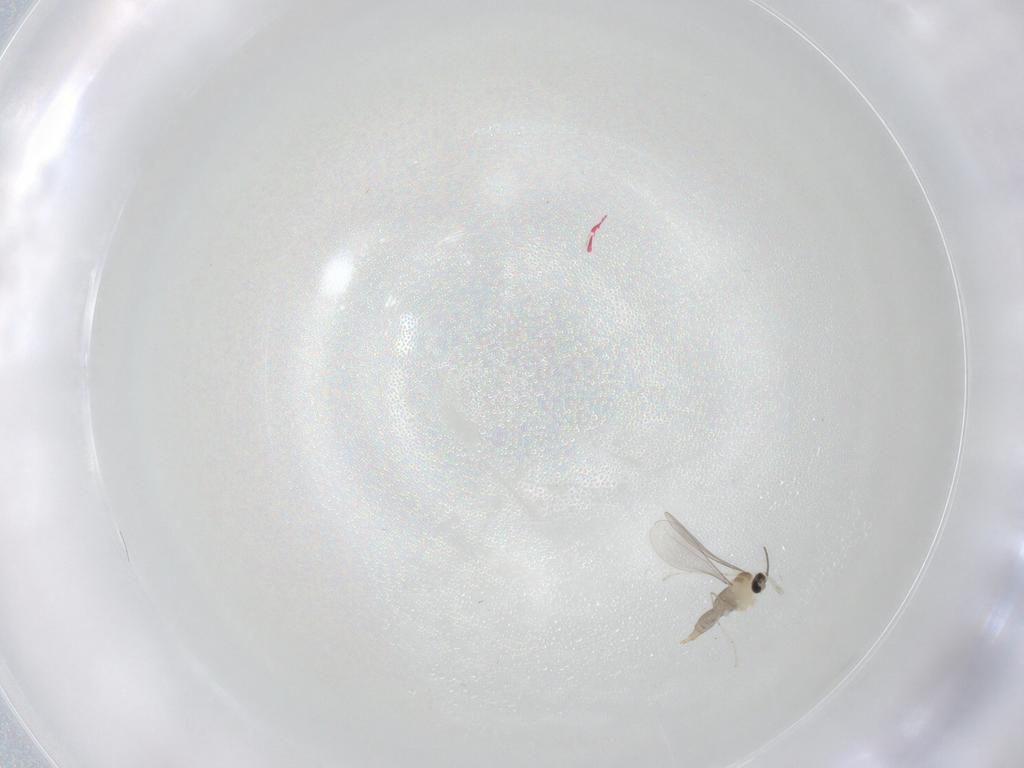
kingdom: Animalia
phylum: Arthropoda
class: Insecta
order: Diptera
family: Cecidomyiidae
